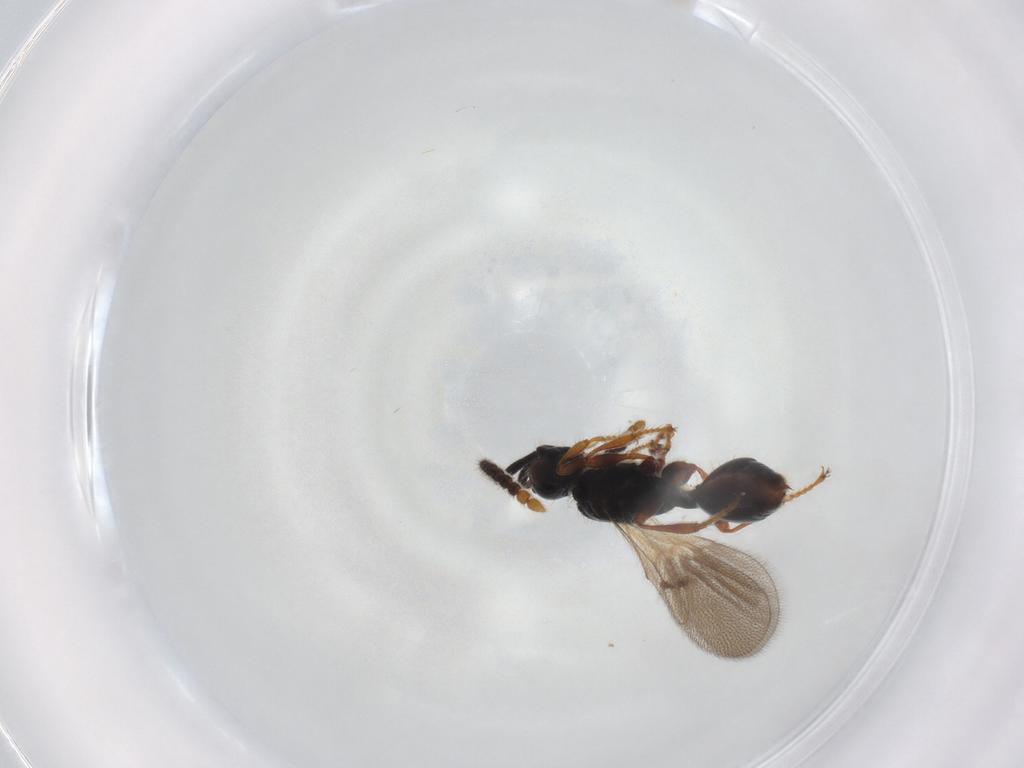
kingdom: Animalia
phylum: Arthropoda
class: Insecta
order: Hymenoptera
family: Diapriidae
